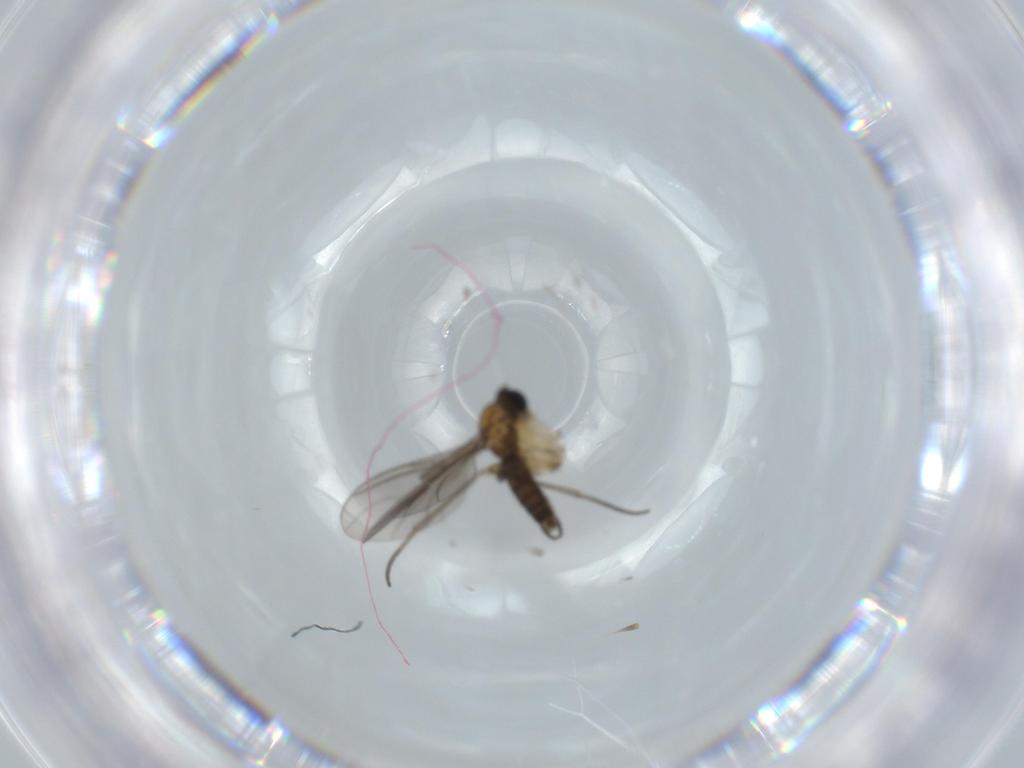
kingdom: Animalia
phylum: Arthropoda
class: Insecta
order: Diptera
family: Sciaridae
